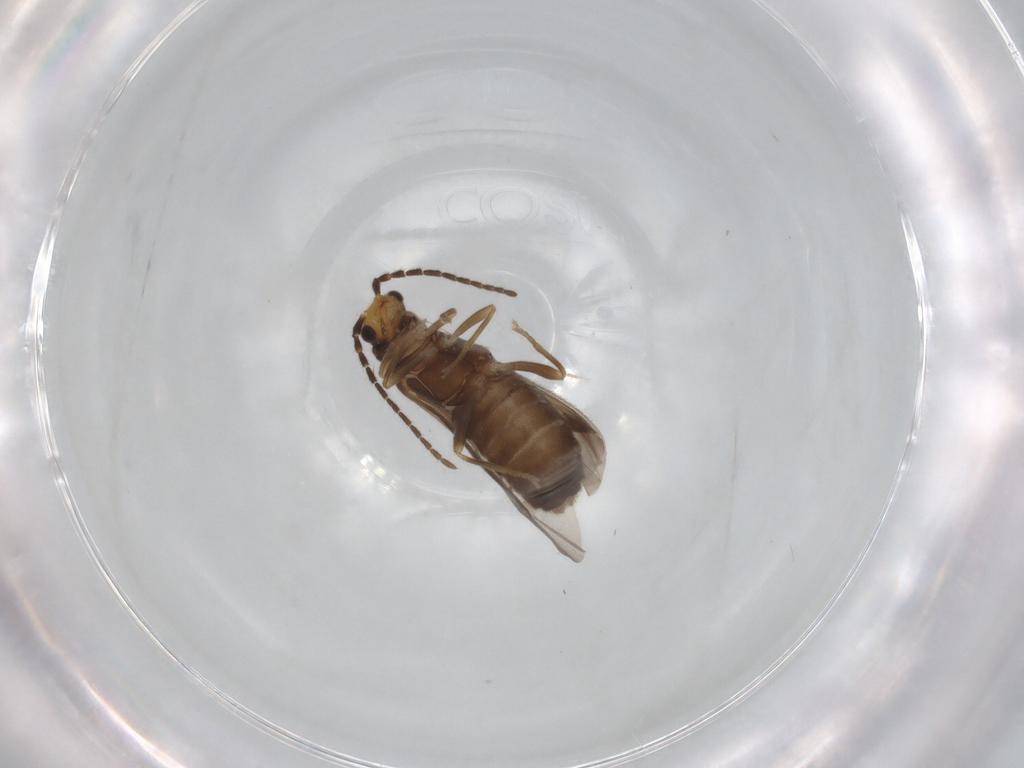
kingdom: Animalia
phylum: Arthropoda
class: Insecta
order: Coleoptera
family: Cantharidae
